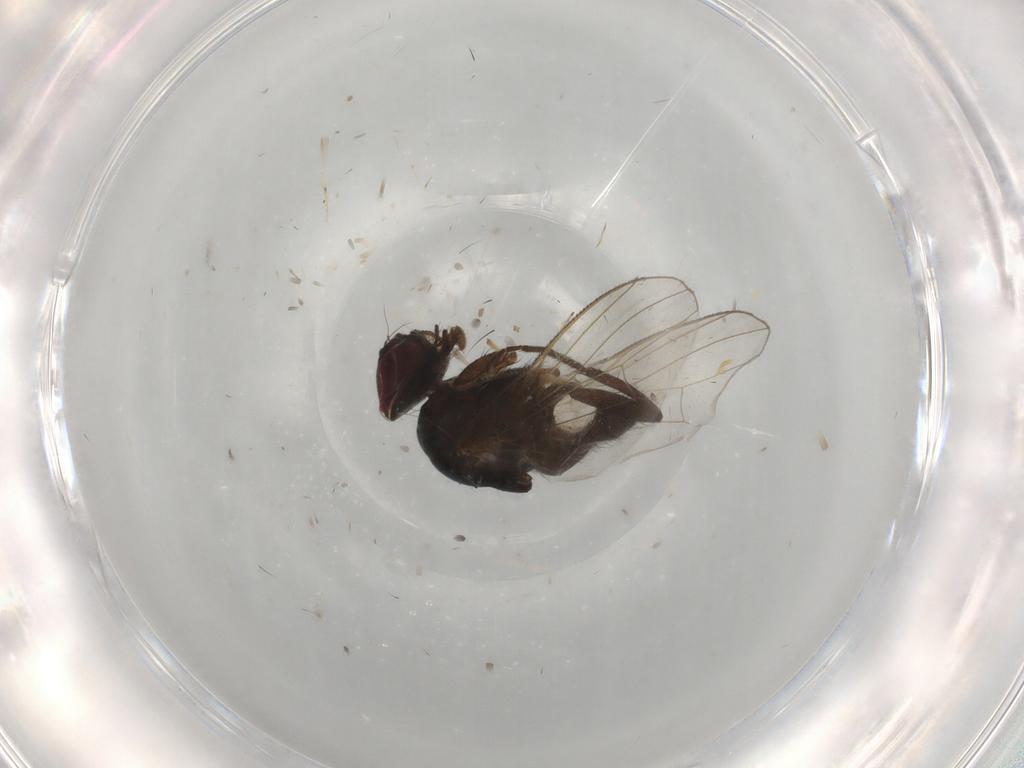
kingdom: Animalia
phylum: Arthropoda
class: Insecta
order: Diptera
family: Muscidae
